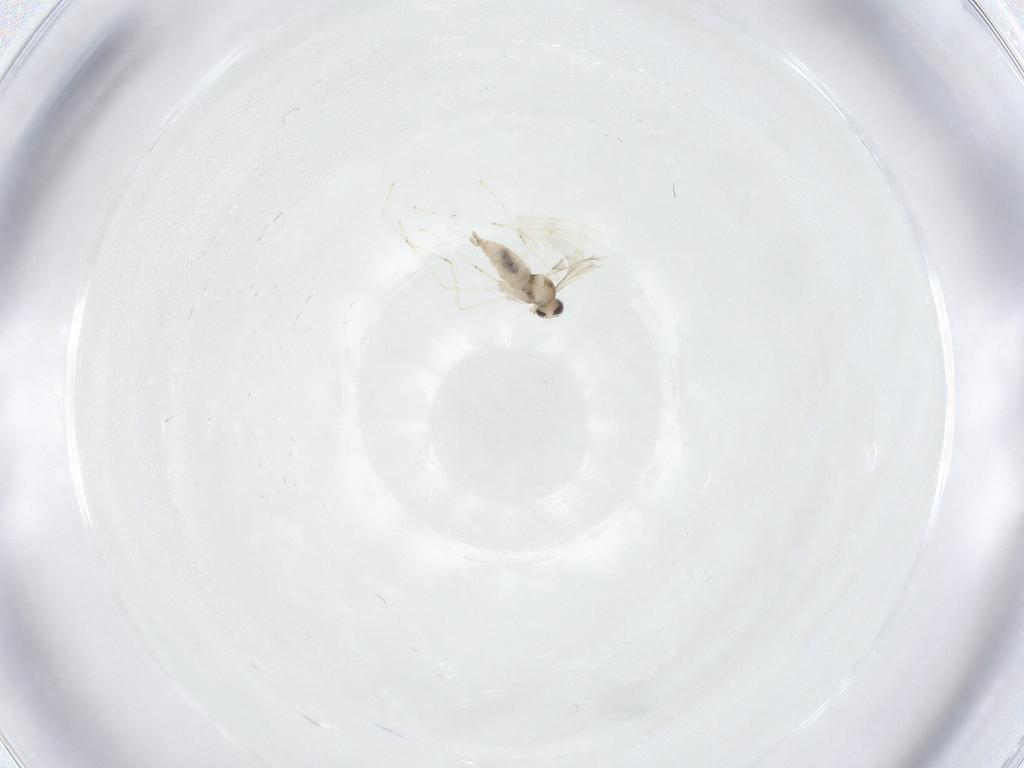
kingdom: Animalia
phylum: Arthropoda
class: Insecta
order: Diptera
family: Cecidomyiidae
